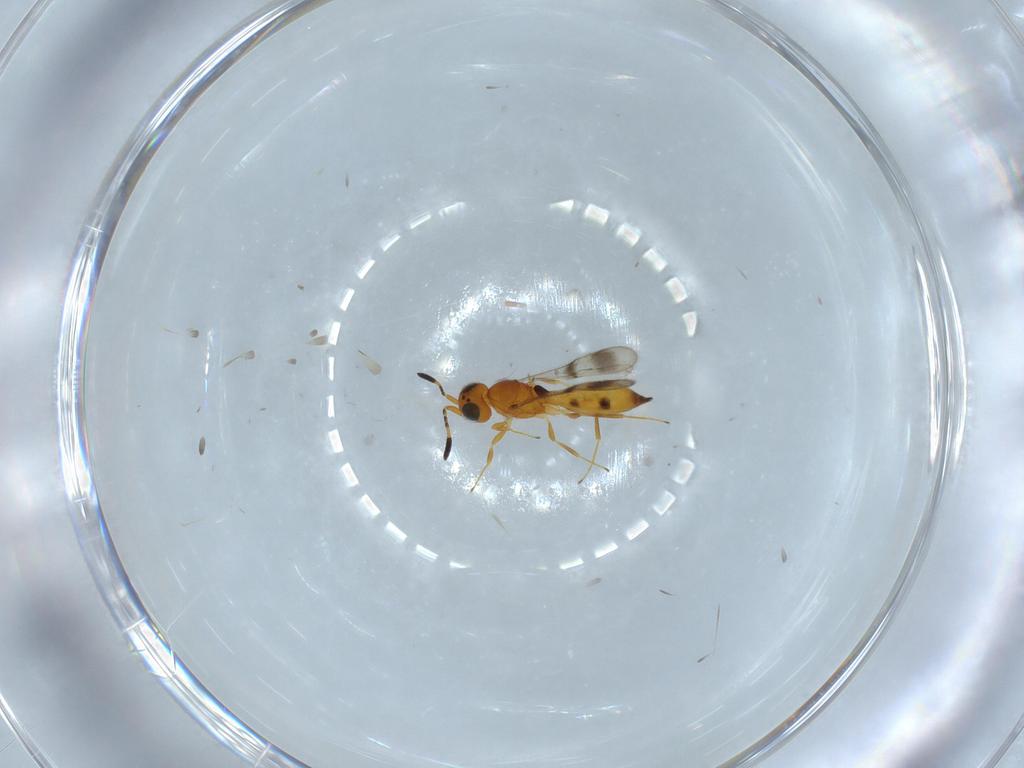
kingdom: Animalia
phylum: Arthropoda
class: Insecta
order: Hymenoptera
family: Scelionidae
